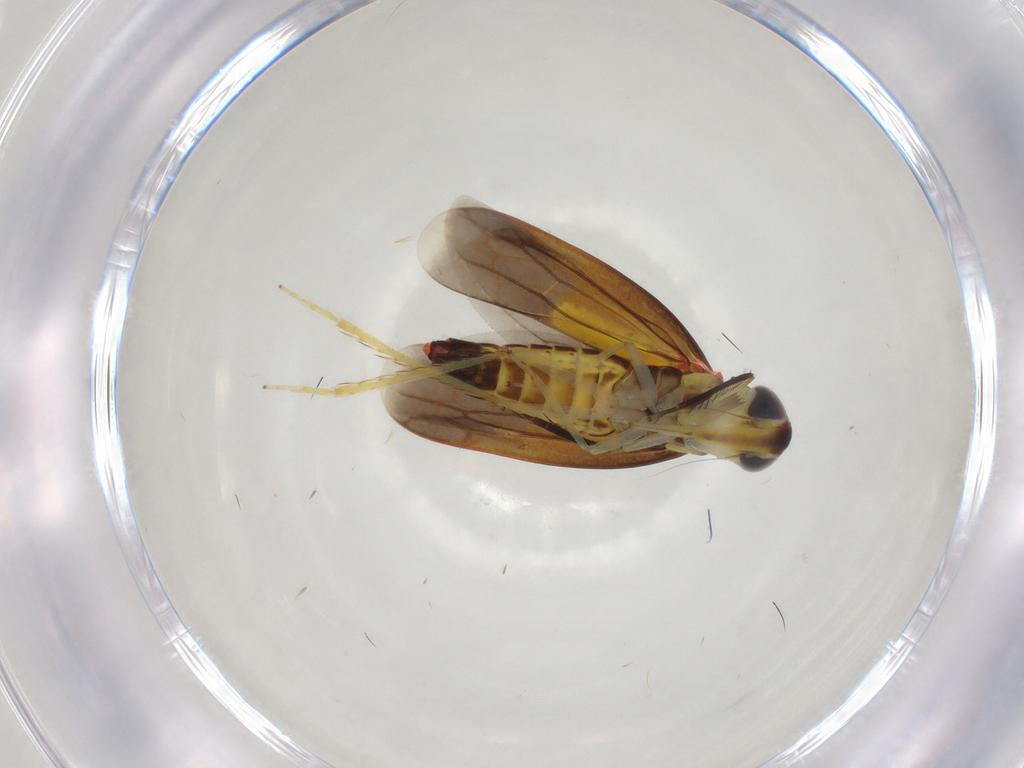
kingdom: Animalia
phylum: Arthropoda
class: Insecta
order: Hemiptera
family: Cicadellidae
